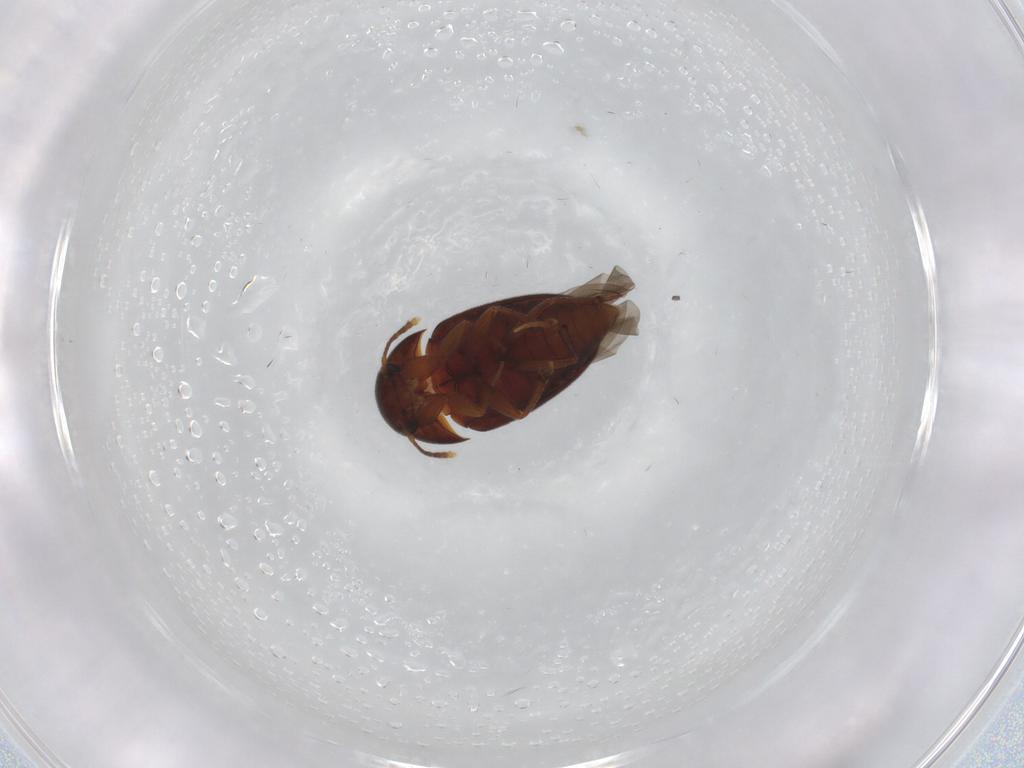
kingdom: Animalia
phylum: Arthropoda
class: Insecta
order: Coleoptera
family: Leiodidae
